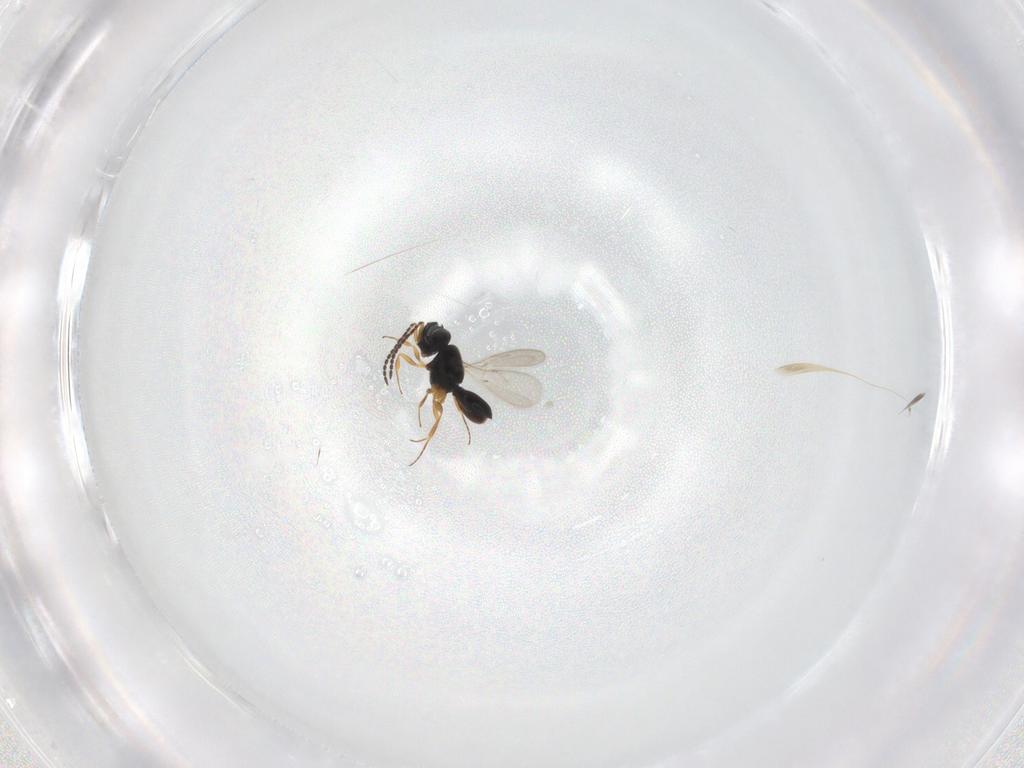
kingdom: Animalia
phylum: Arthropoda
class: Insecta
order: Hymenoptera
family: Scelionidae
